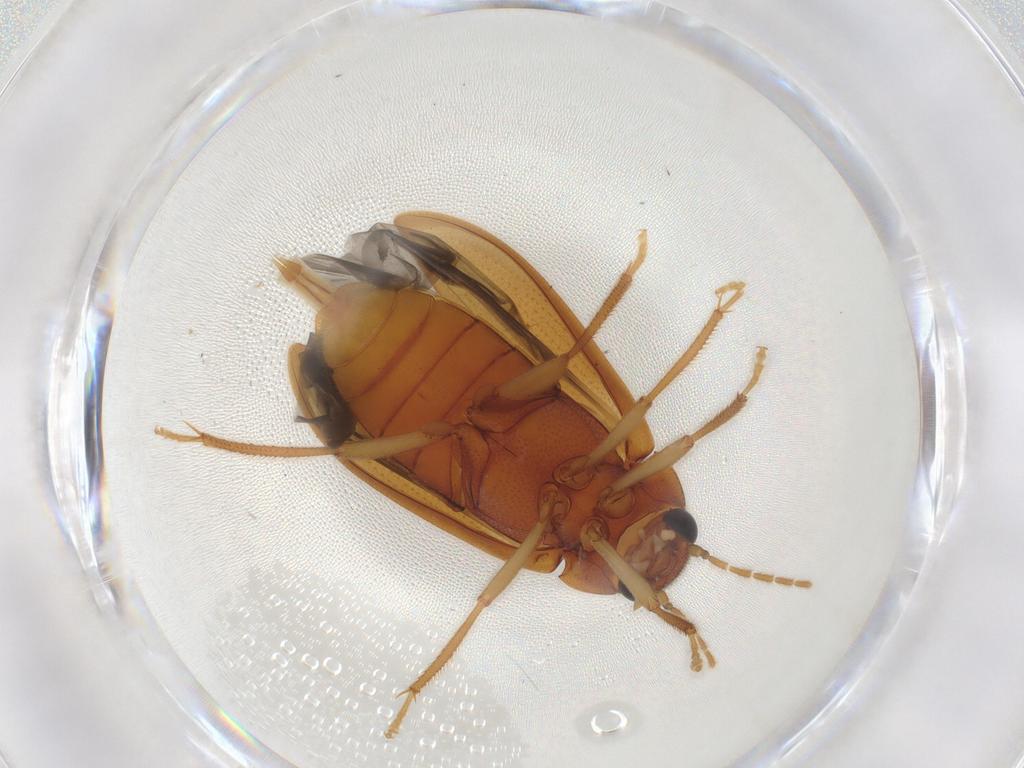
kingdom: Animalia
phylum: Arthropoda
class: Insecta
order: Coleoptera
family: Ptilodactylidae
